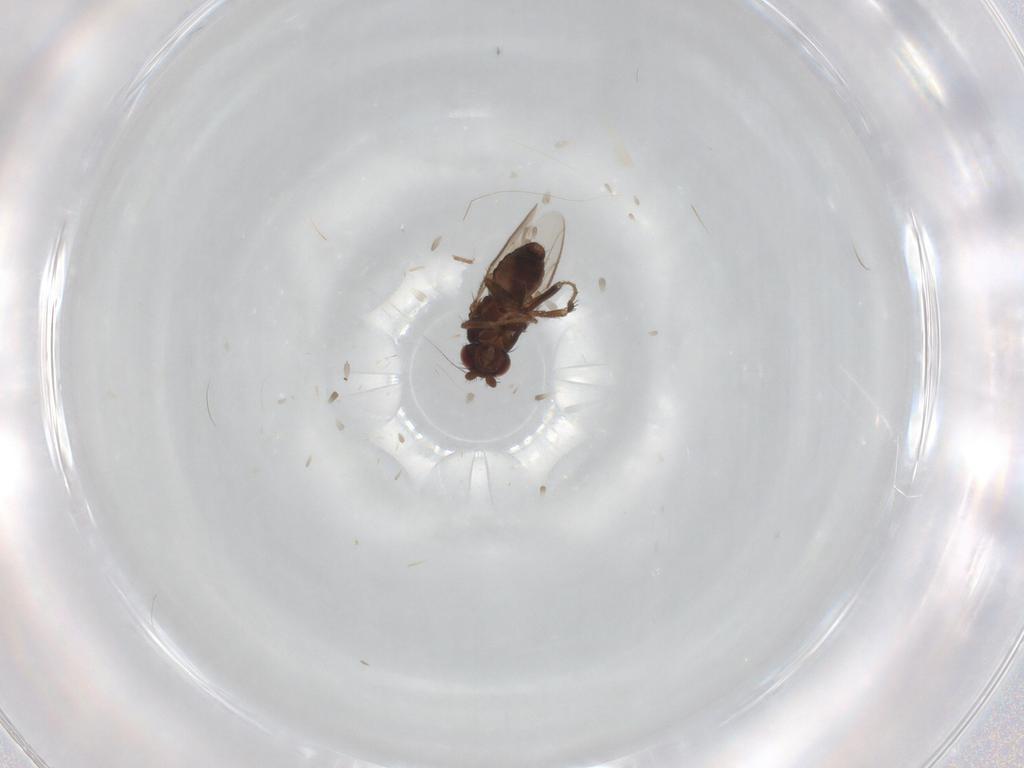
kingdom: Animalia
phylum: Arthropoda
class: Insecta
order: Diptera
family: Sphaeroceridae
